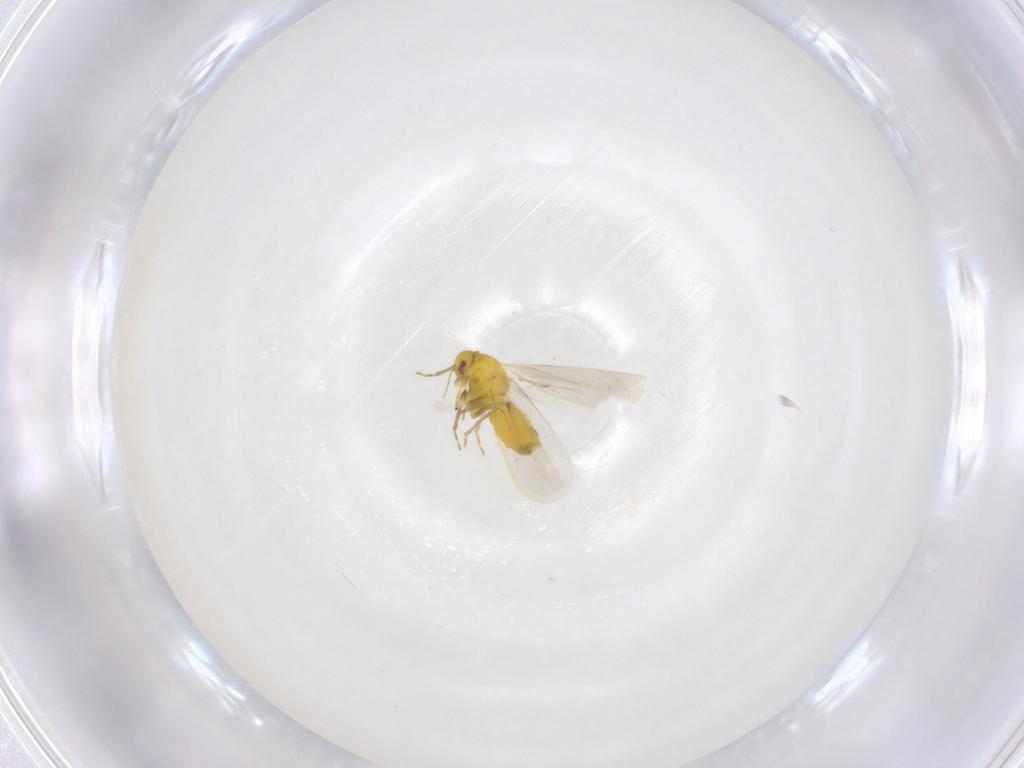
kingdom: Animalia
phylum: Arthropoda
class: Insecta
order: Hemiptera
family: Aleyrodidae
